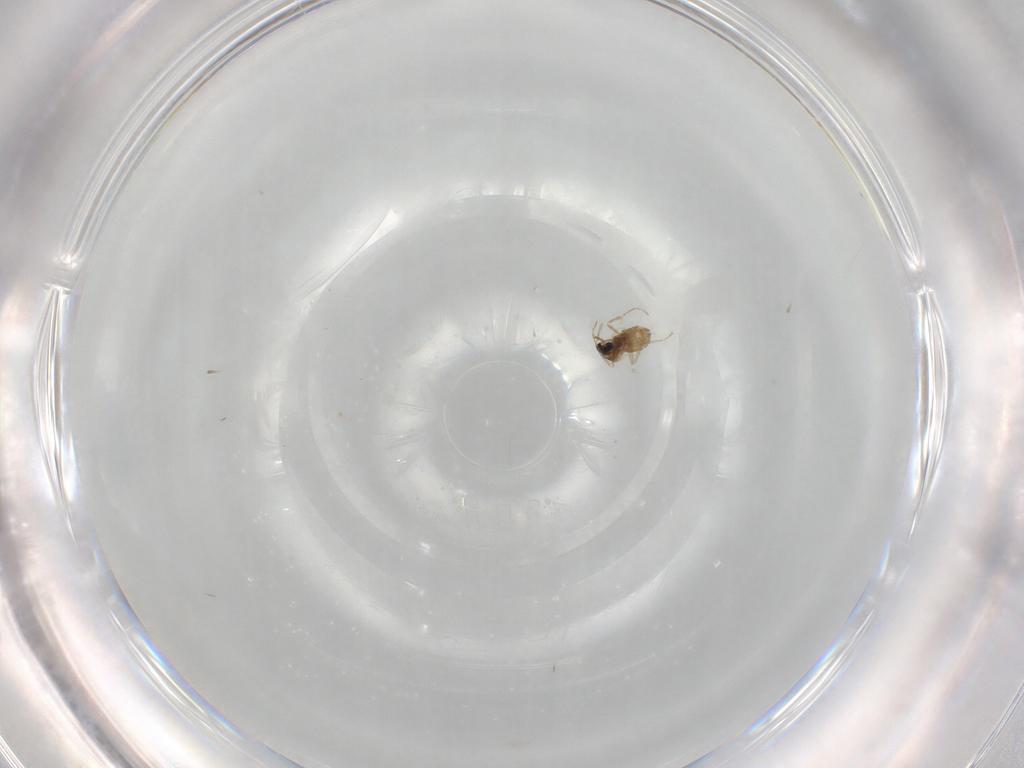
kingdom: Animalia
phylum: Arthropoda
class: Insecta
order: Diptera
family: Cecidomyiidae
